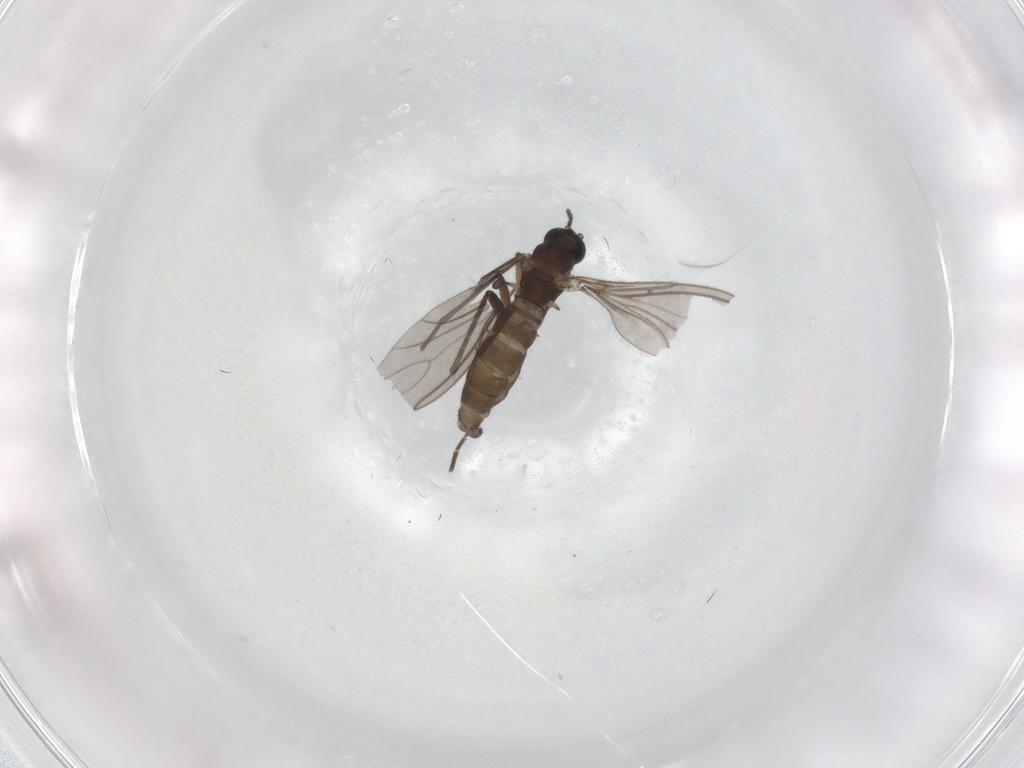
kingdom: Animalia
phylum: Arthropoda
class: Insecta
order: Diptera
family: Sciaridae
